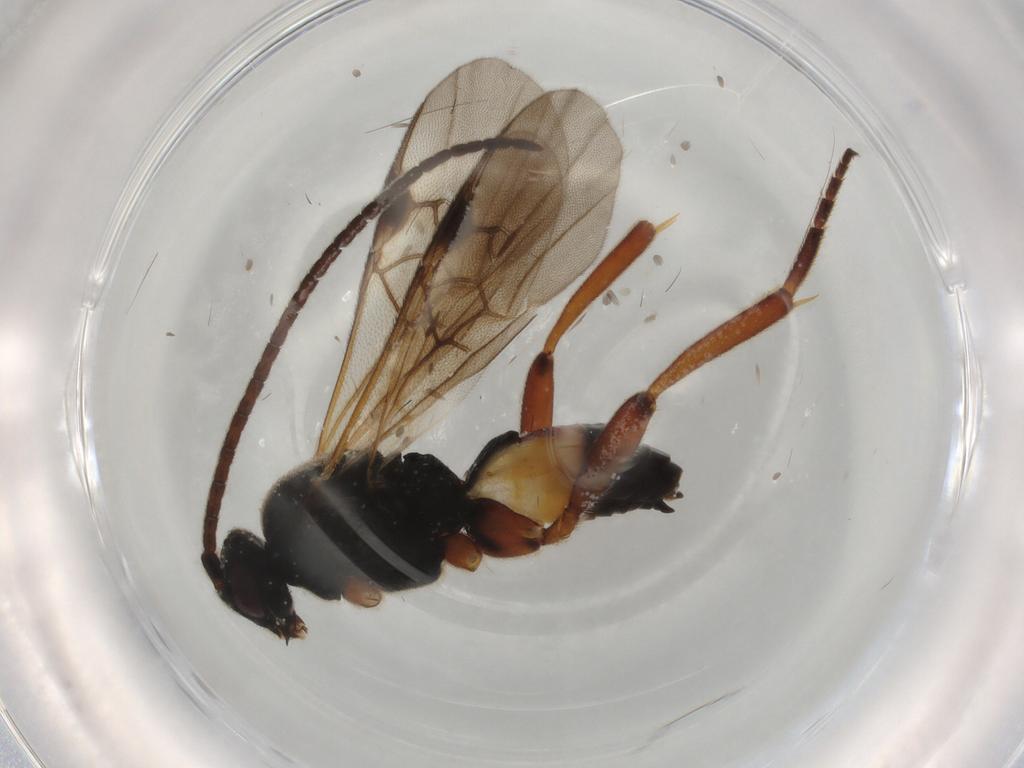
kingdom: Animalia
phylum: Arthropoda
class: Insecta
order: Hymenoptera
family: Braconidae
